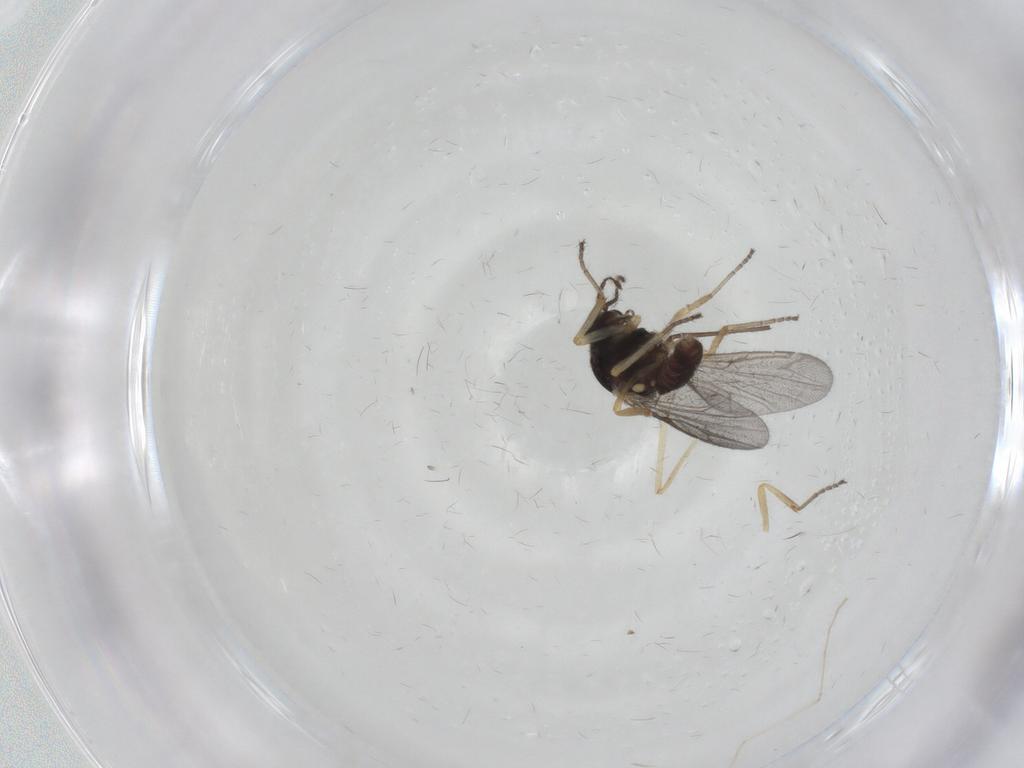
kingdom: Animalia
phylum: Arthropoda
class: Insecta
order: Diptera
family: Ceratopogonidae
